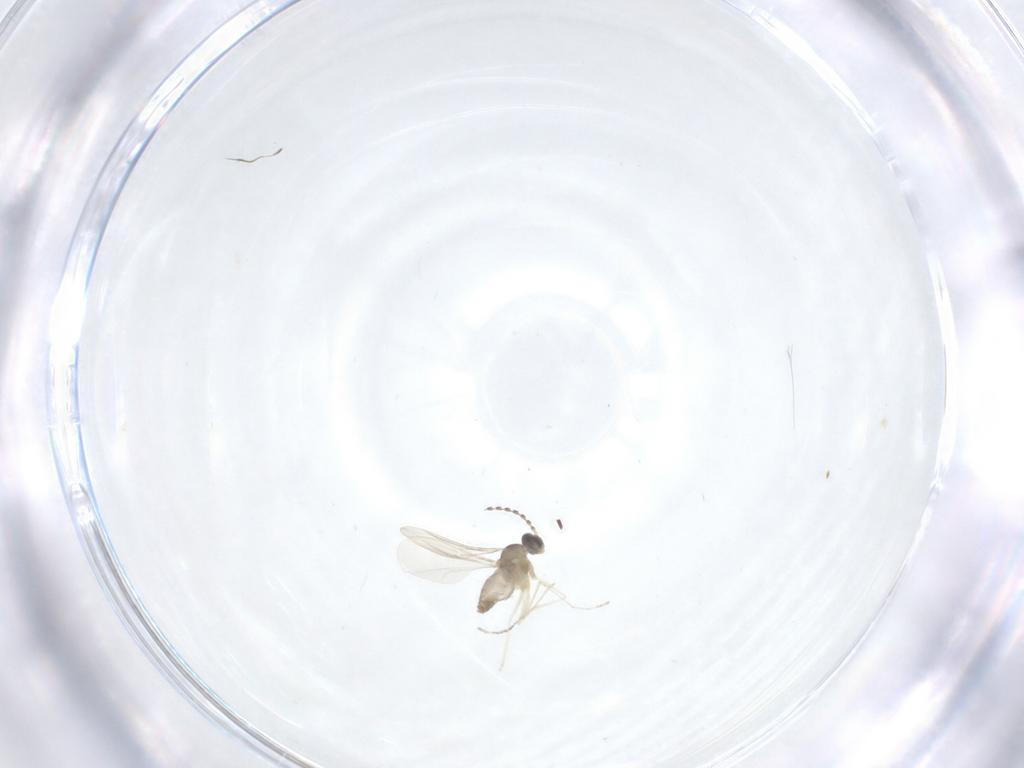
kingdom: Animalia
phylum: Arthropoda
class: Insecta
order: Diptera
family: Cecidomyiidae
